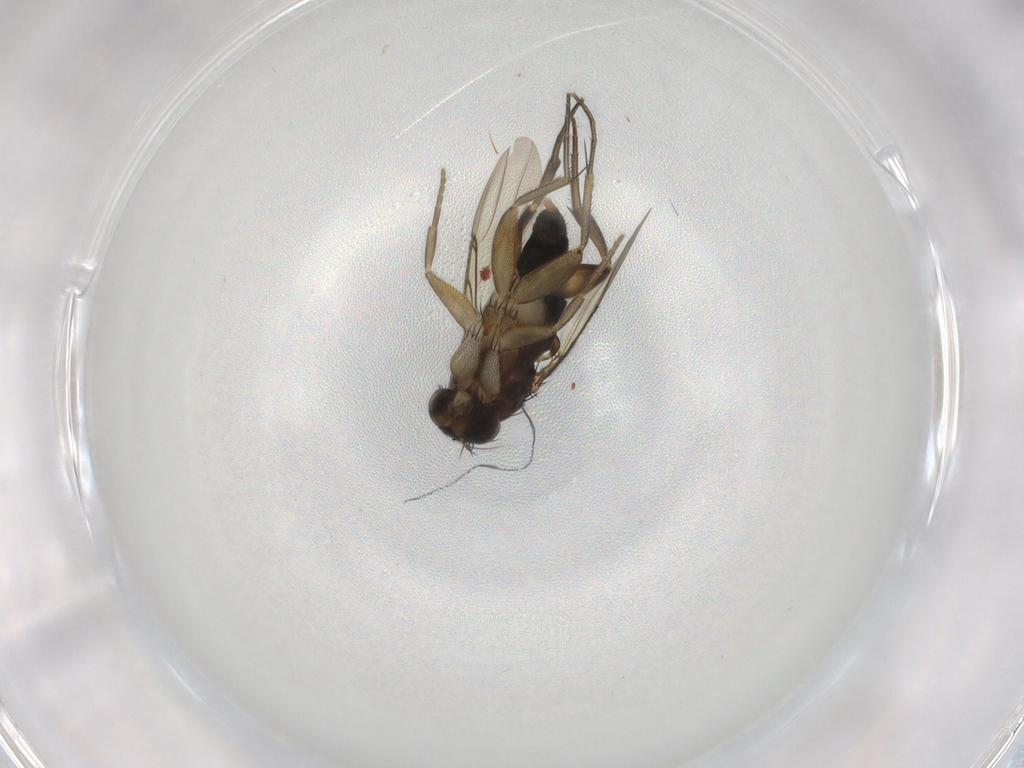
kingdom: Animalia
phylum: Arthropoda
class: Insecta
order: Diptera
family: Phoridae
